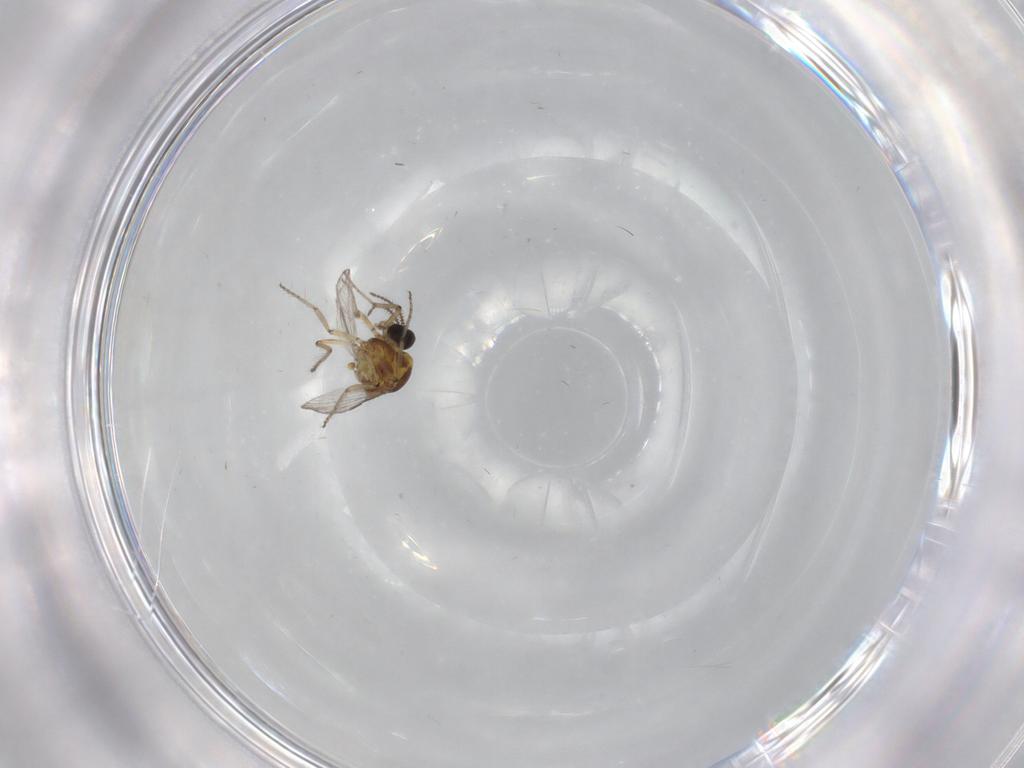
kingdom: Animalia
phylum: Arthropoda
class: Insecta
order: Diptera
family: Ceratopogonidae
